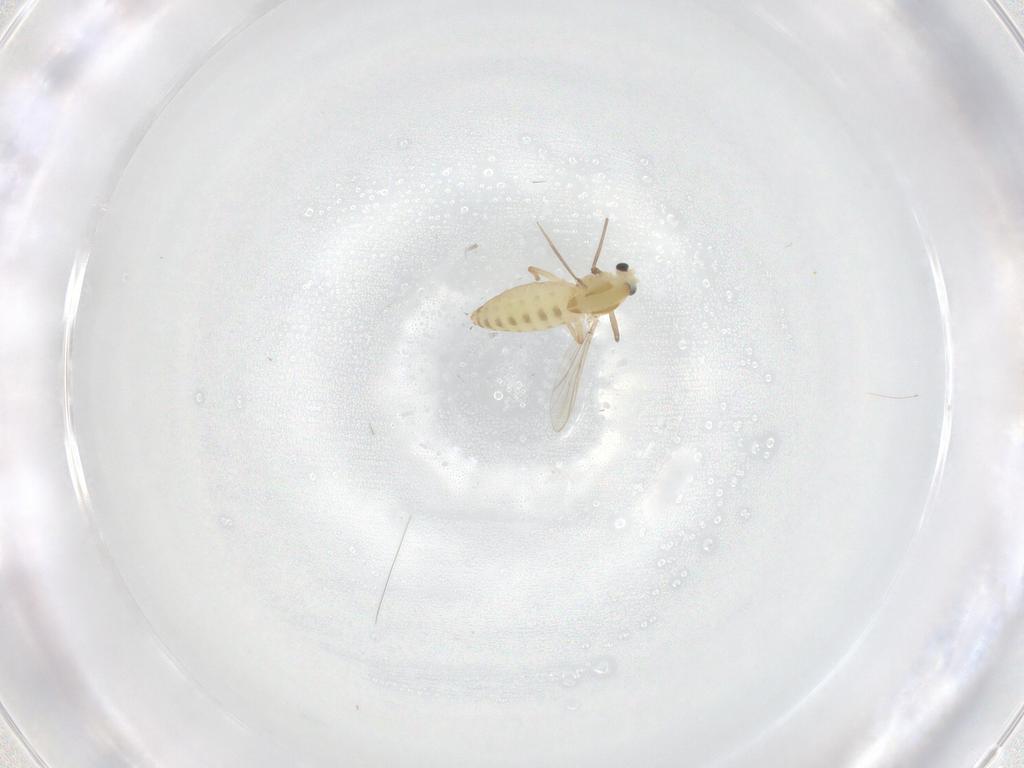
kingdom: Animalia
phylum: Arthropoda
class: Insecta
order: Diptera
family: Chironomidae
